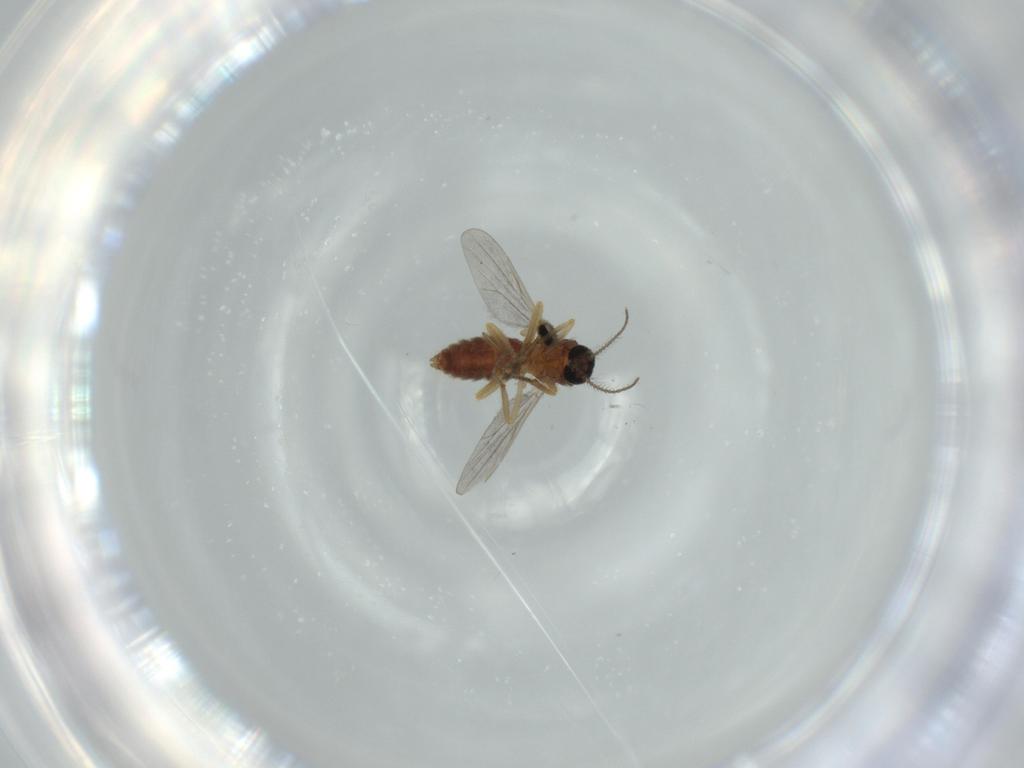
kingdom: Animalia
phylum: Arthropoda
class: Insecta
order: Diptera
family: Ceratopogonidae
